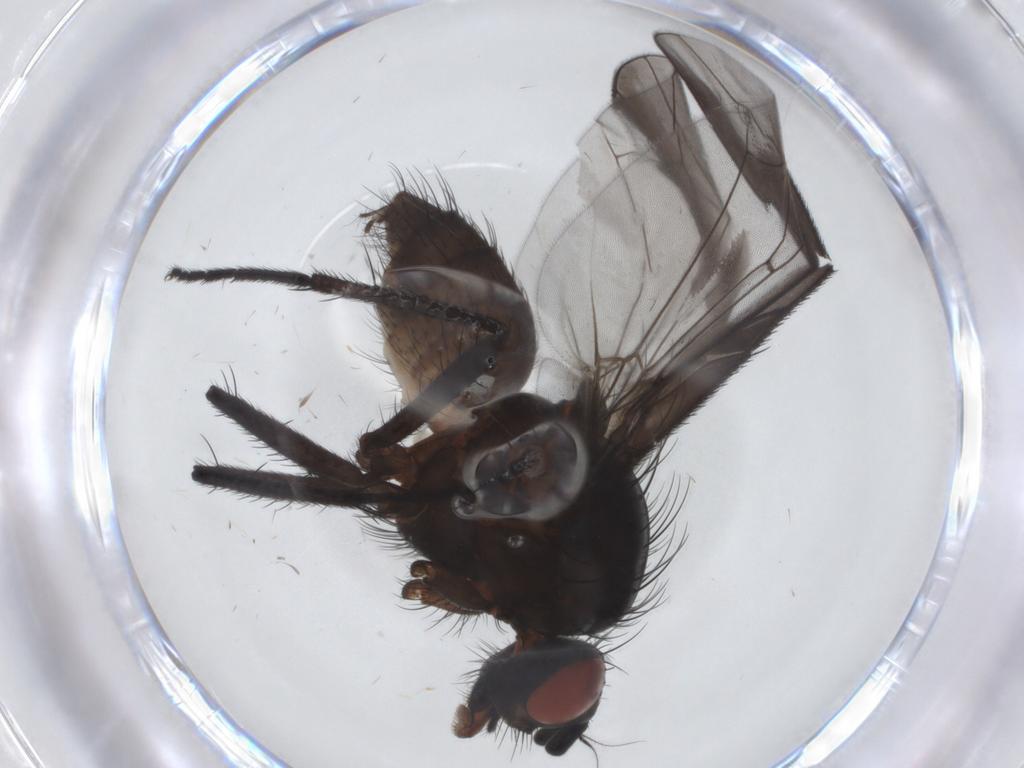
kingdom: Animalia
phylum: Arthropoda
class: Insecta
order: Diptera
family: Anthomyiidae
